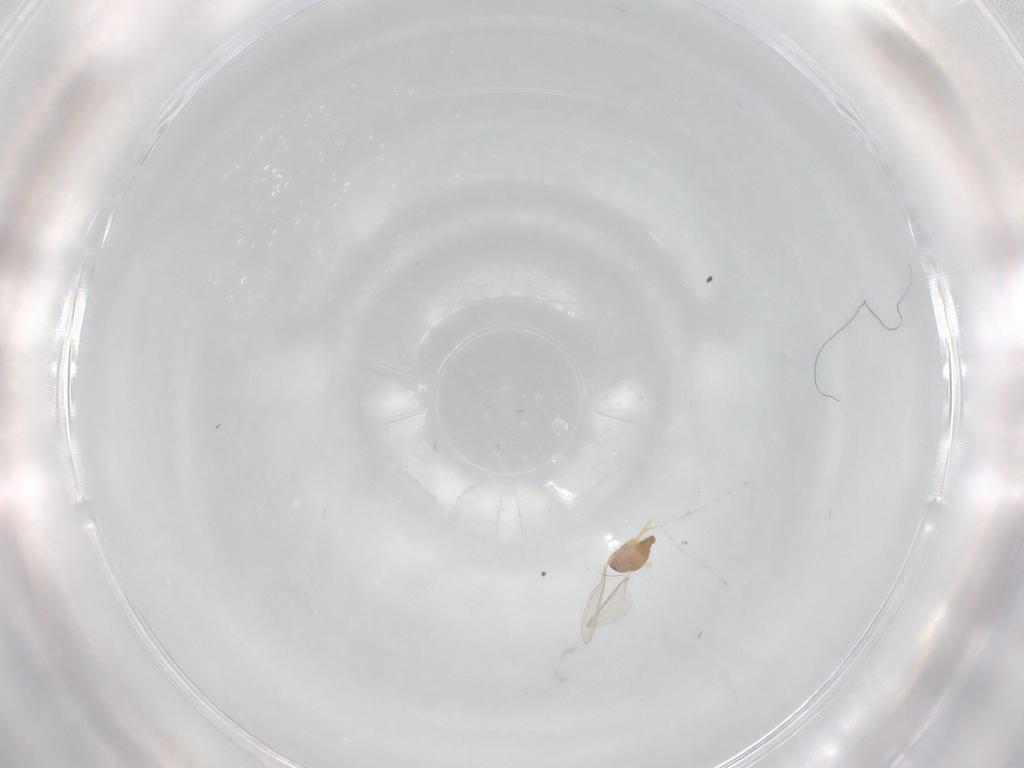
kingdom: Animalia
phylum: Arthropoda
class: Insecta
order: Diptera
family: Cecidomyiidae
